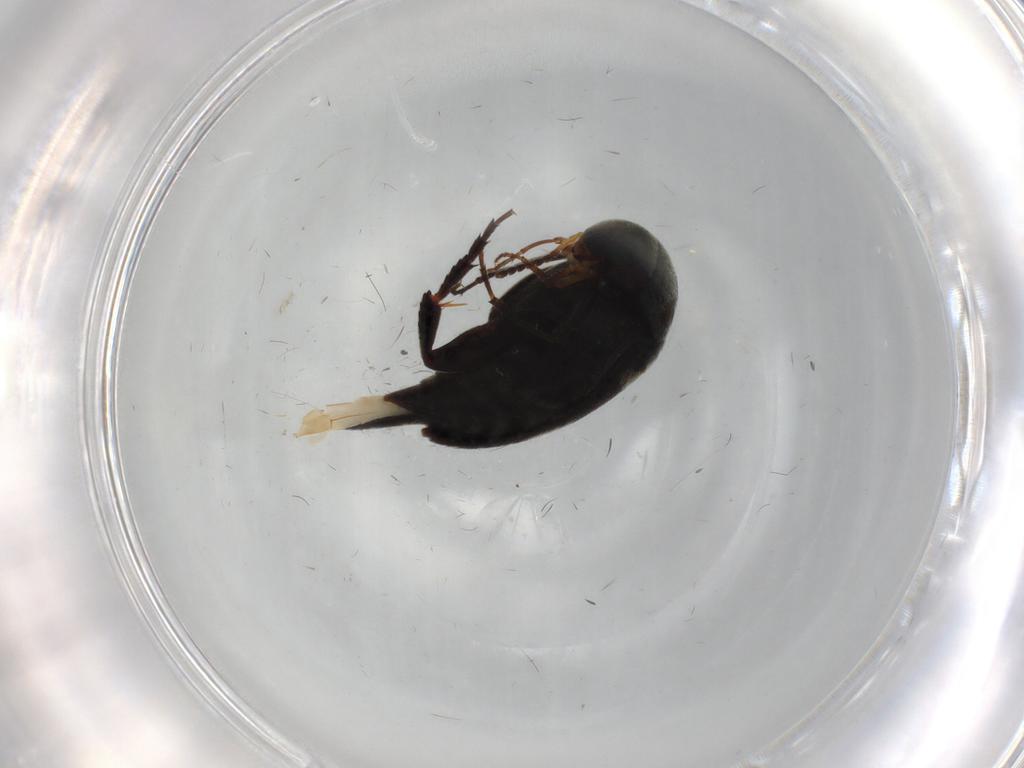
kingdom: Animalia
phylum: Arthropoda
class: Insecta
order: Coleoptera
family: Mordellidae
